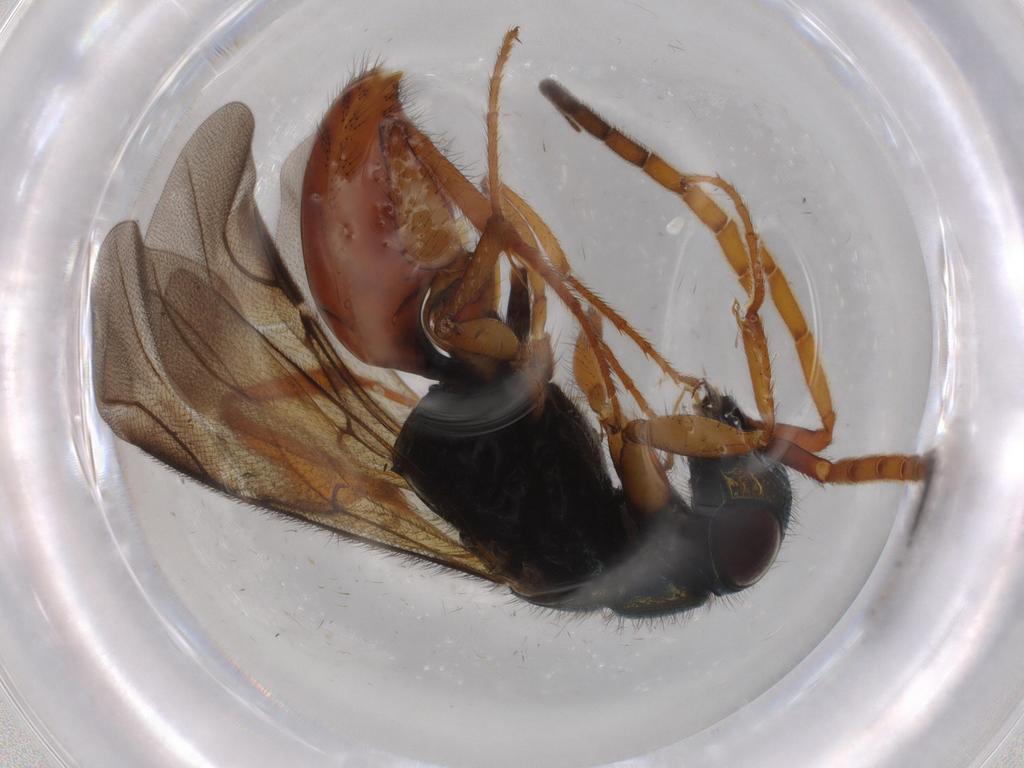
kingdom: Animalia
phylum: Arthropoda
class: Insecta
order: Hymenoptera
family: Chrysididae
